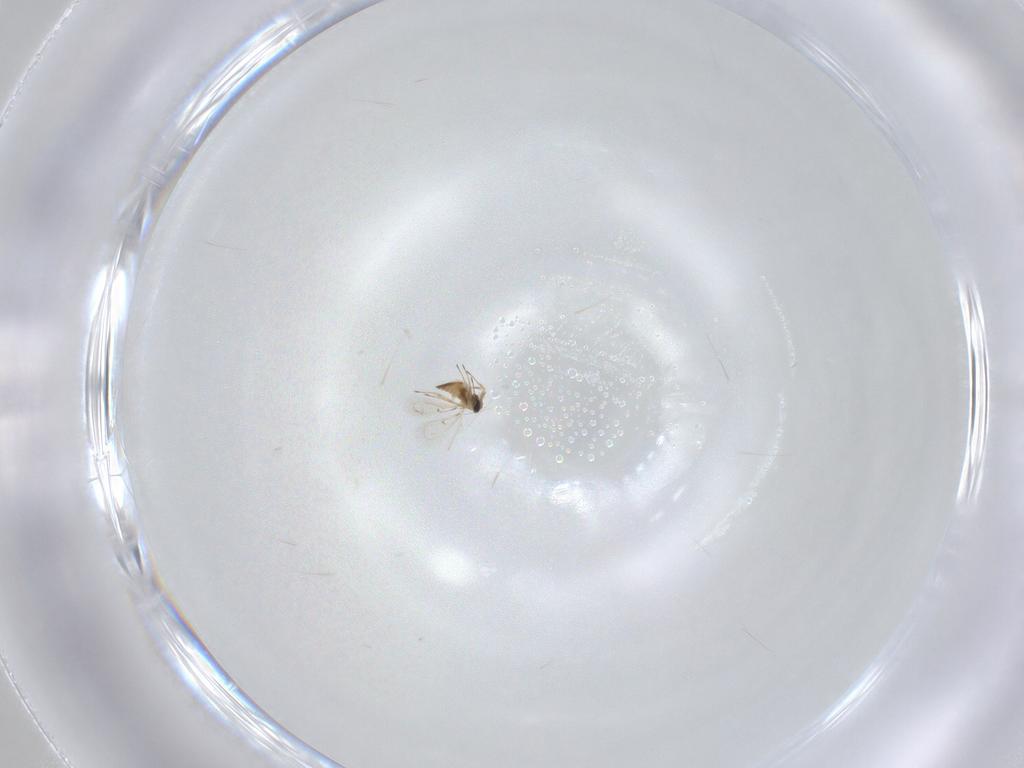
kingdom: Animalia
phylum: Arthropoda
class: Insecta
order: Hymenoptera
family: Trichogrammatidae
